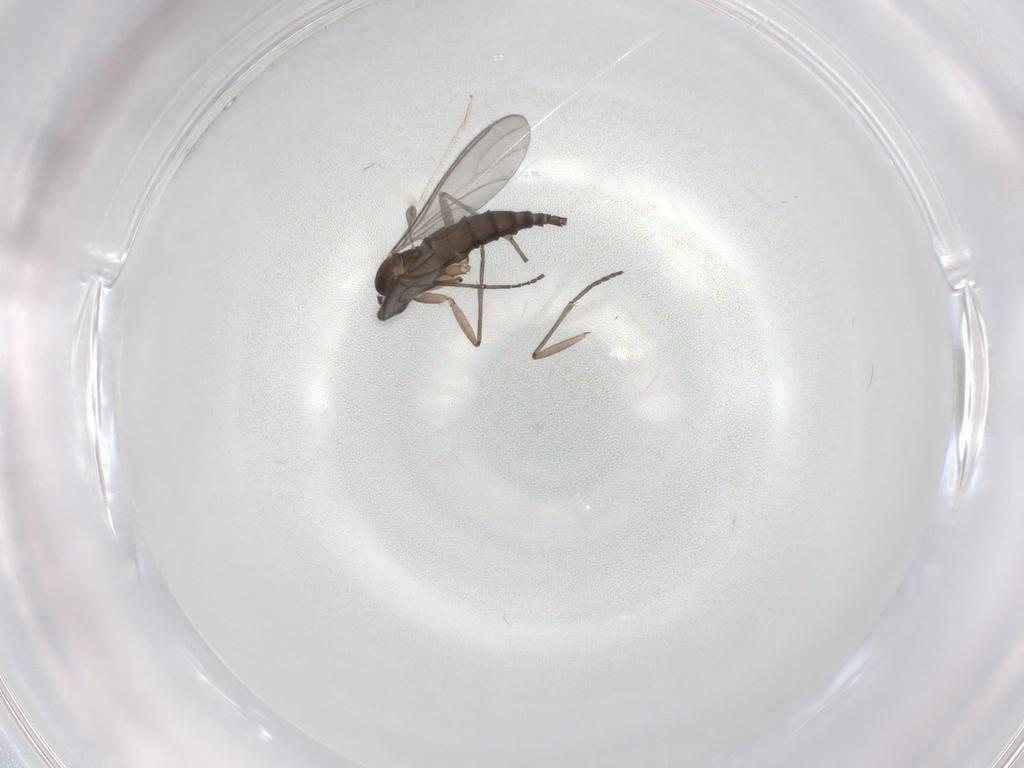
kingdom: Animalia
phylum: Arthropoda
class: Insecta
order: Diptera
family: Sciaridae
